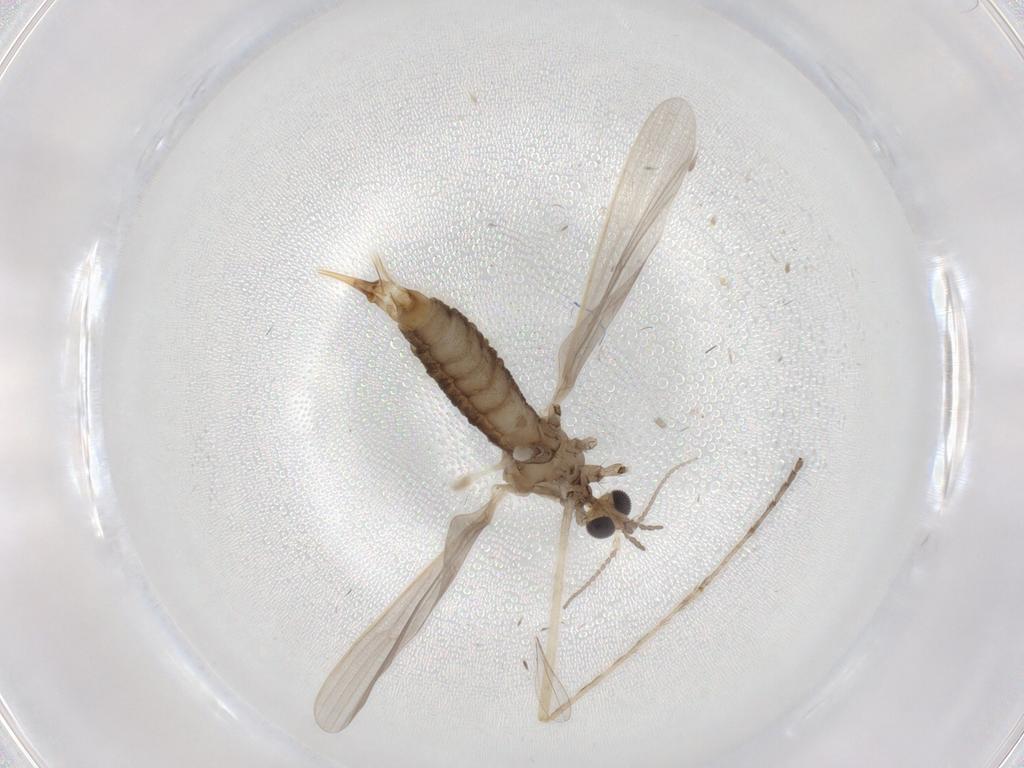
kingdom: Animalia
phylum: Arthropoda
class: Insecta
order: Diptera
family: Limoniidae
